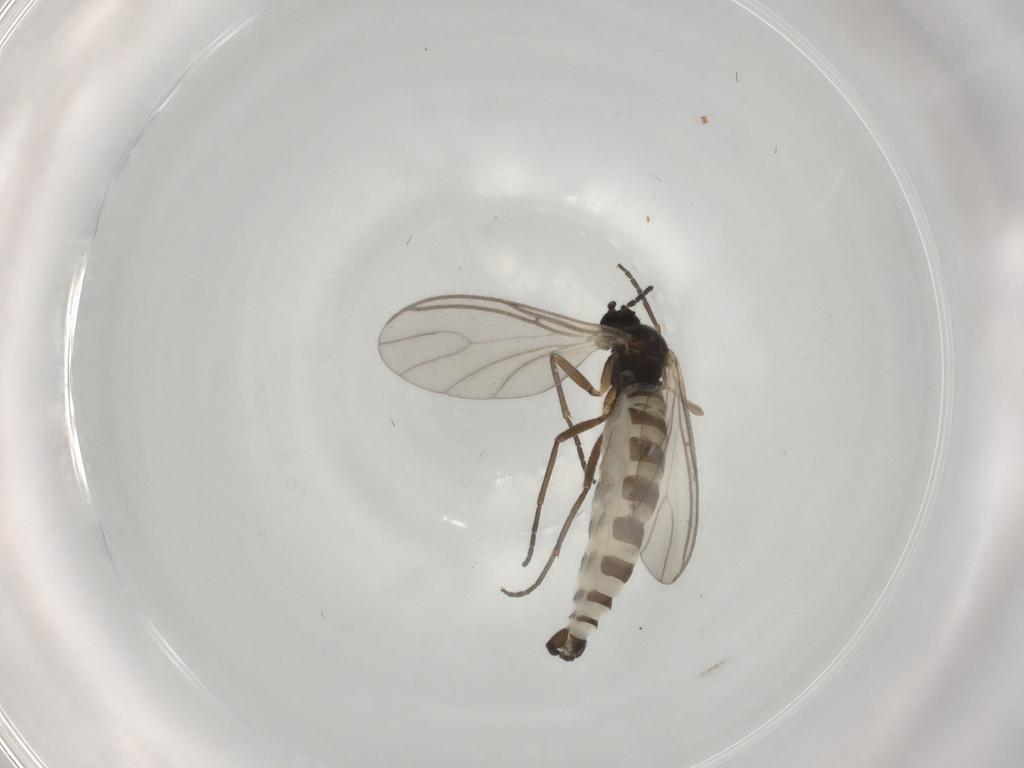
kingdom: Animalia
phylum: Arthropoda
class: Insecta
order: Diptera
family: Sciaridae
